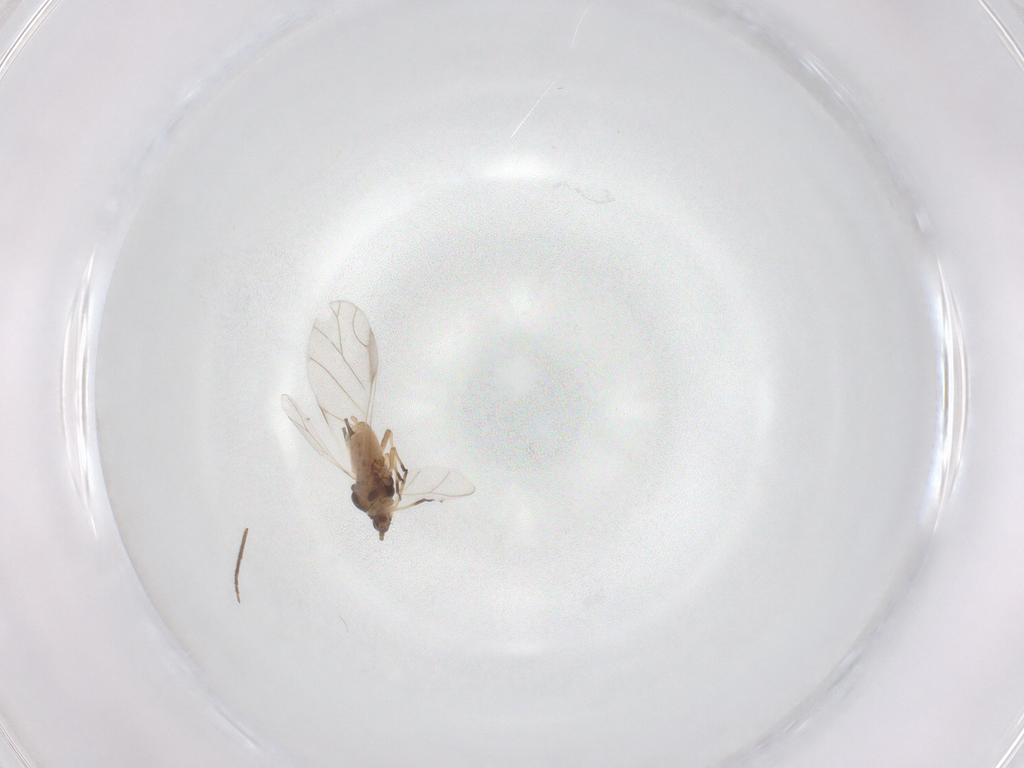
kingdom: Animalia
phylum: Arthropoda
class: Insecta
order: Hemiptera
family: Aphididae
